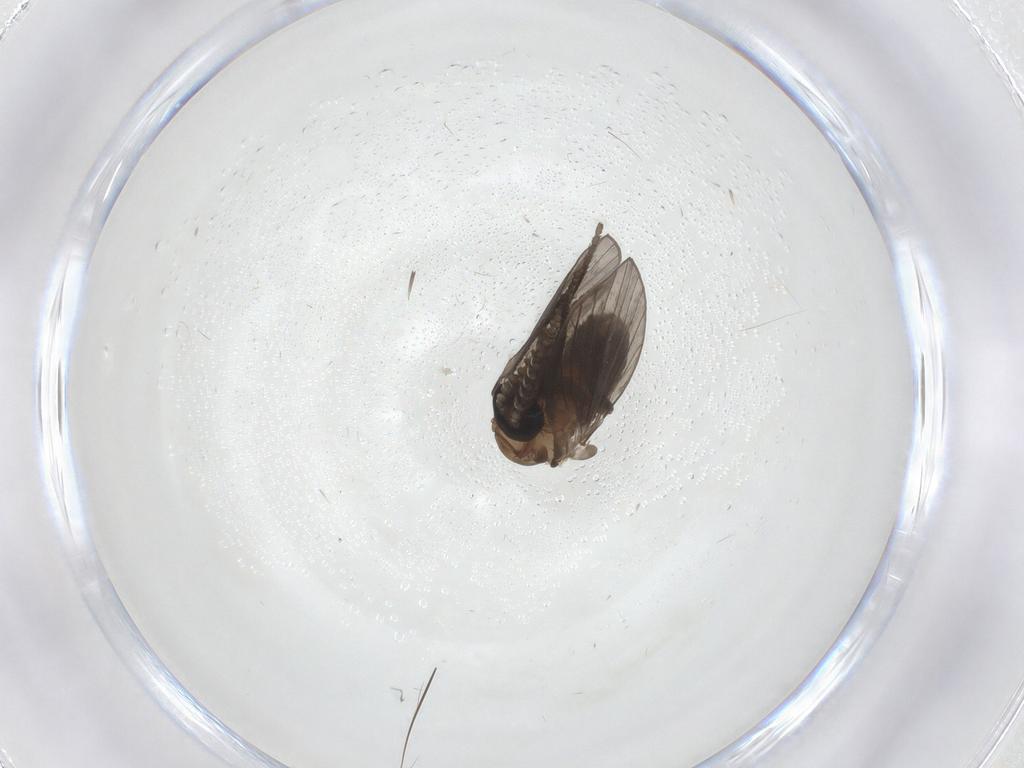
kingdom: Animalia
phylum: Arthropoda
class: Insecta
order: Diptera
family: Psychodidae
